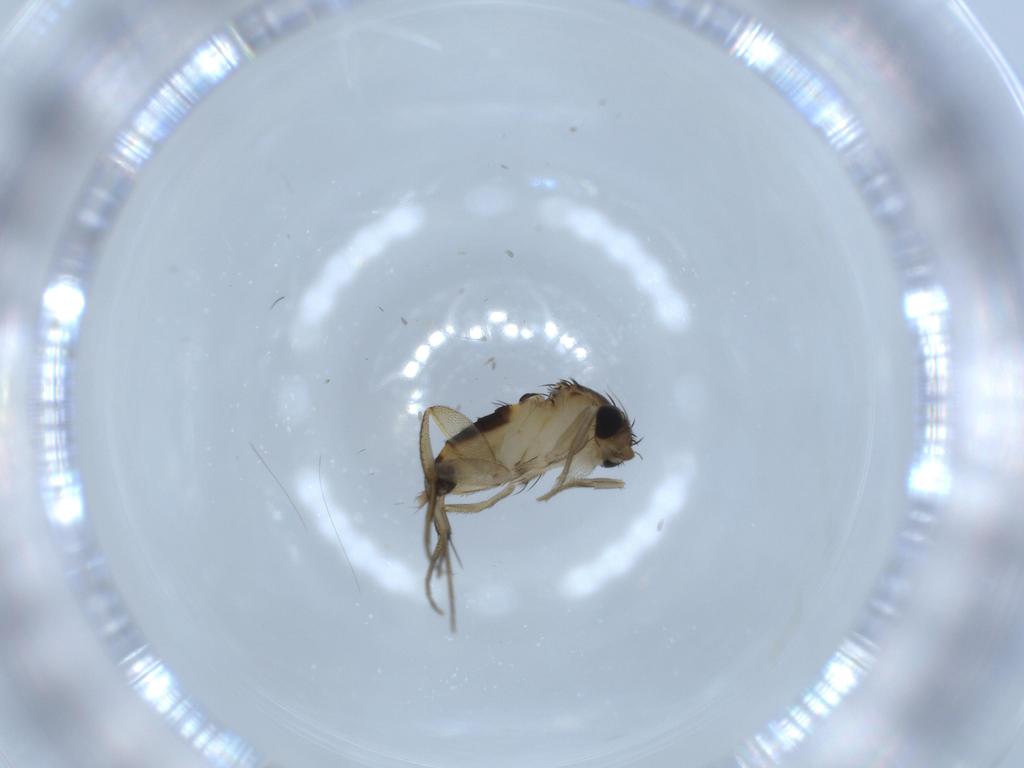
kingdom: Animalia
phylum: Arthropoda
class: Insecta
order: Diptera
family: Phoridae
